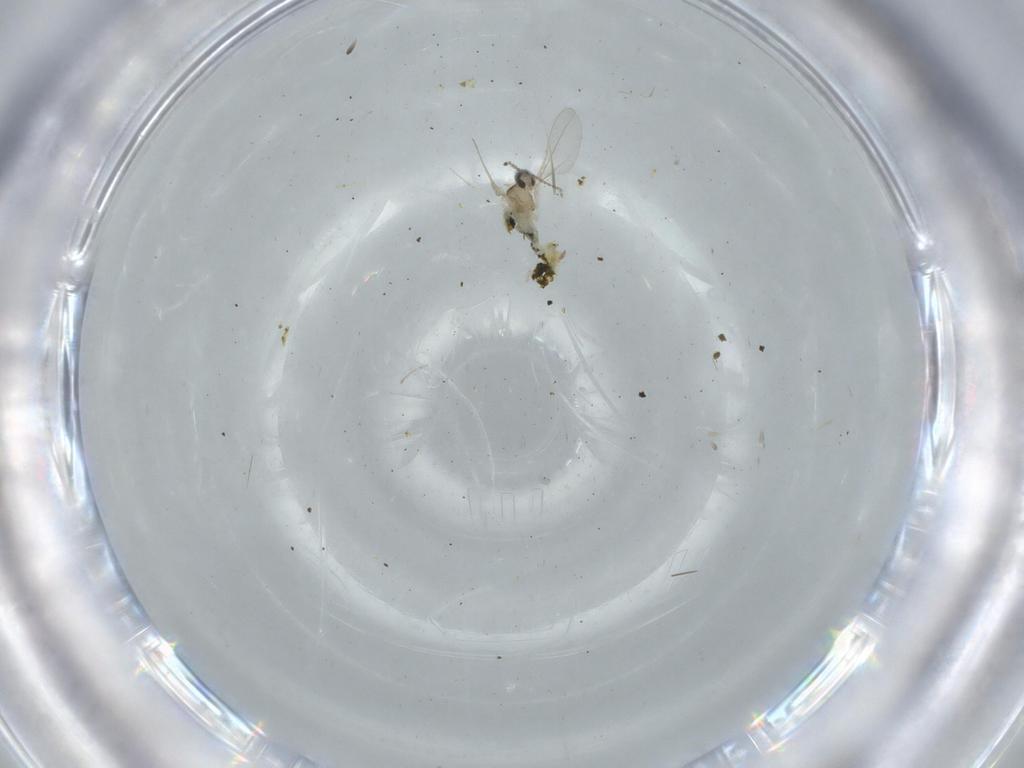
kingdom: Animalia
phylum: Arthropoda
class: Insecta
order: Diptera
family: Cecidomyiidae
